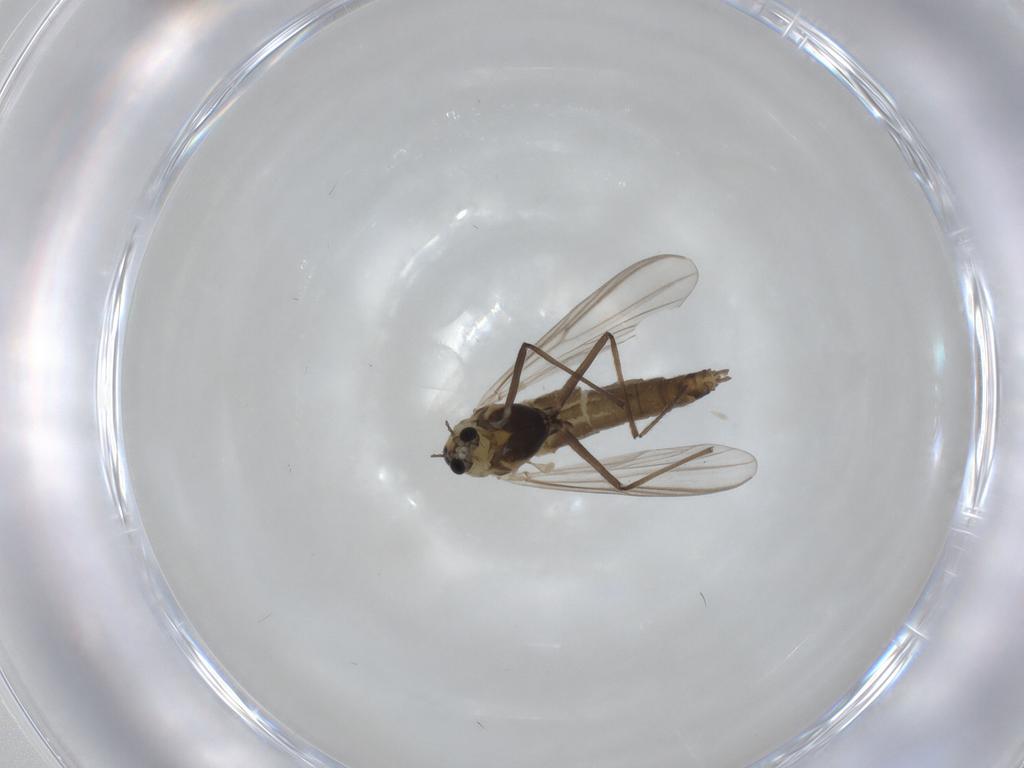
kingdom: Animalia
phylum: Arthropoda
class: Insecta
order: Diptera
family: Chironomidae
